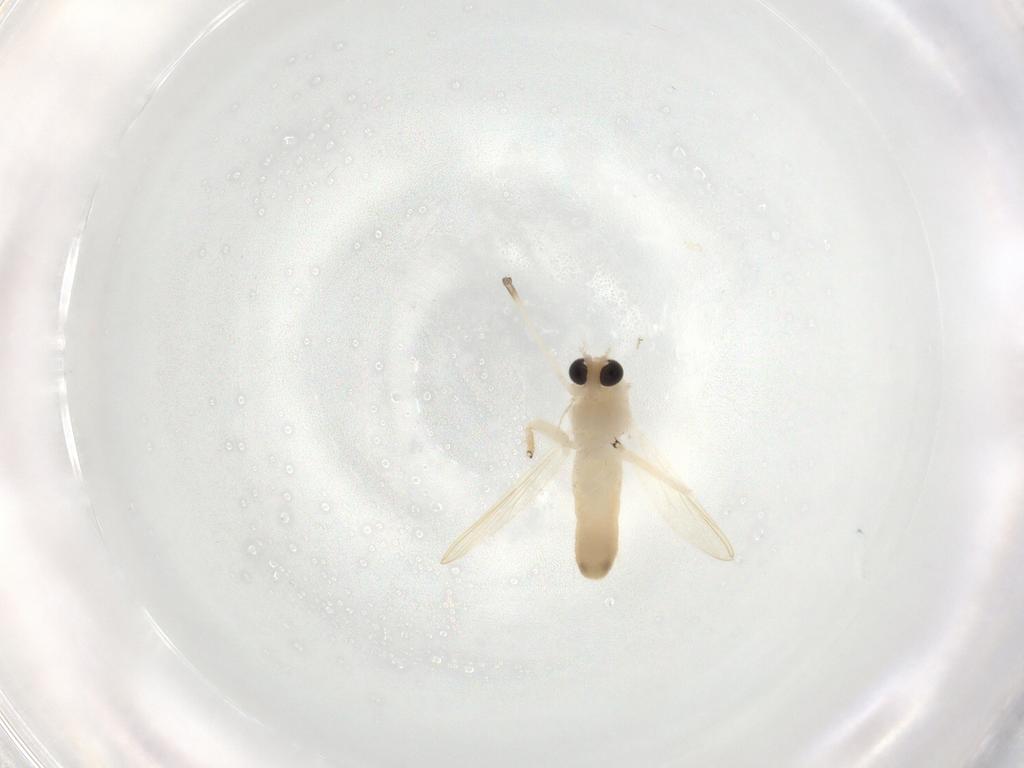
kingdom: Animalia
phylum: Arthropoda
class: Insecta
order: Diptera
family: Chironomidae
